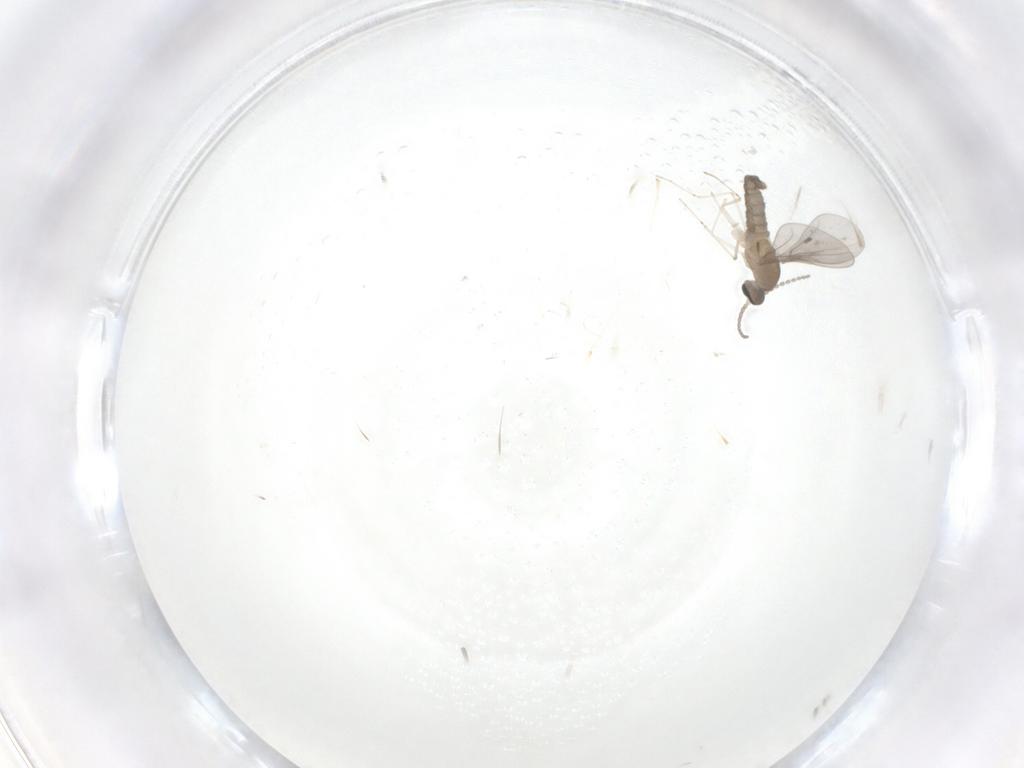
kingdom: Animalia
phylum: Arthropoda
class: Insecta
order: Diptera
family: Cecidomyiidae
